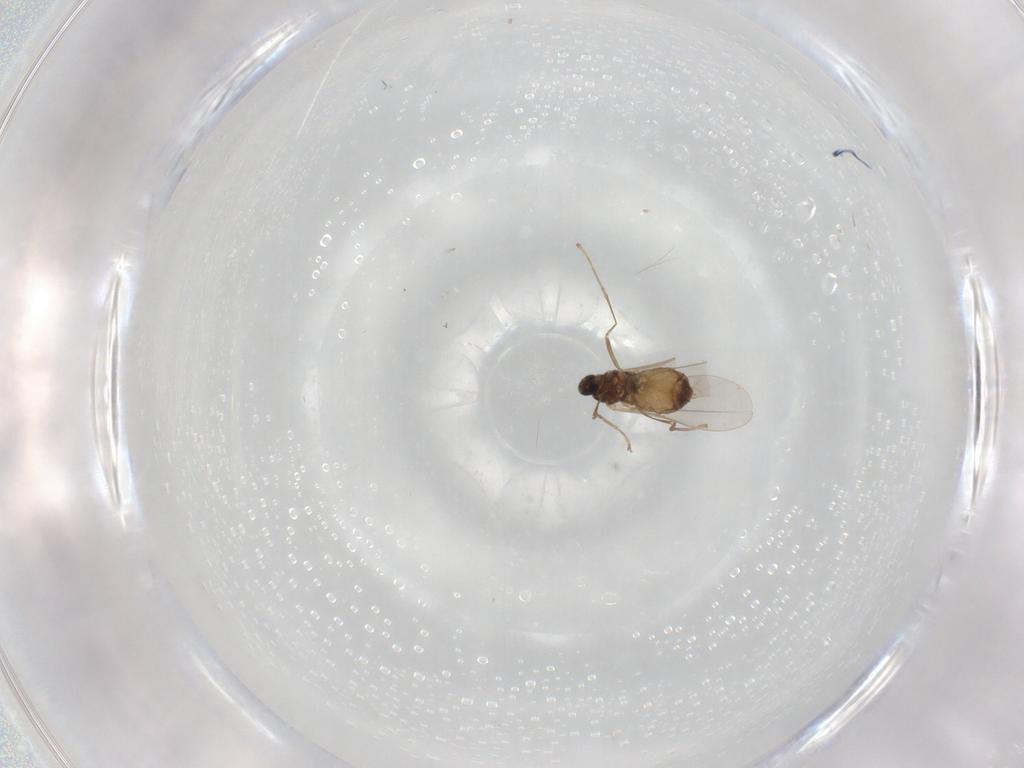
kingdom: Animalia
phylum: Arthropoda
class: Insecta
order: Diptera
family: Cecidomyiidae
